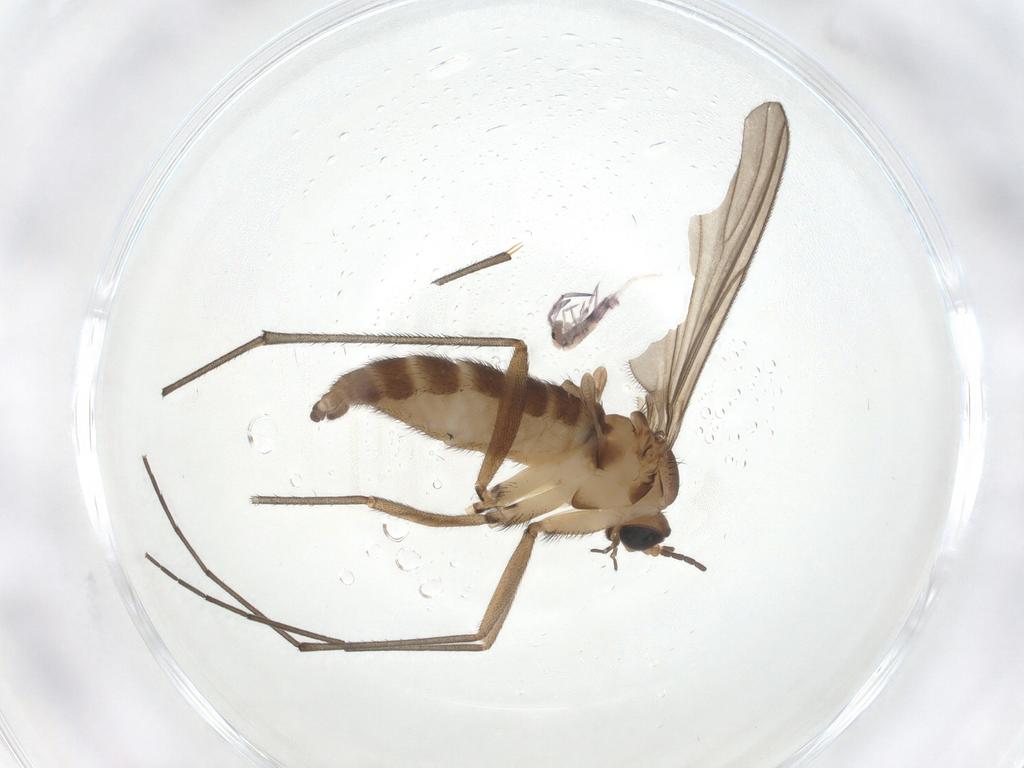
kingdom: Animalia
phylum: Arthropoda
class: Insecta
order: Diptera
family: Sciaridae
